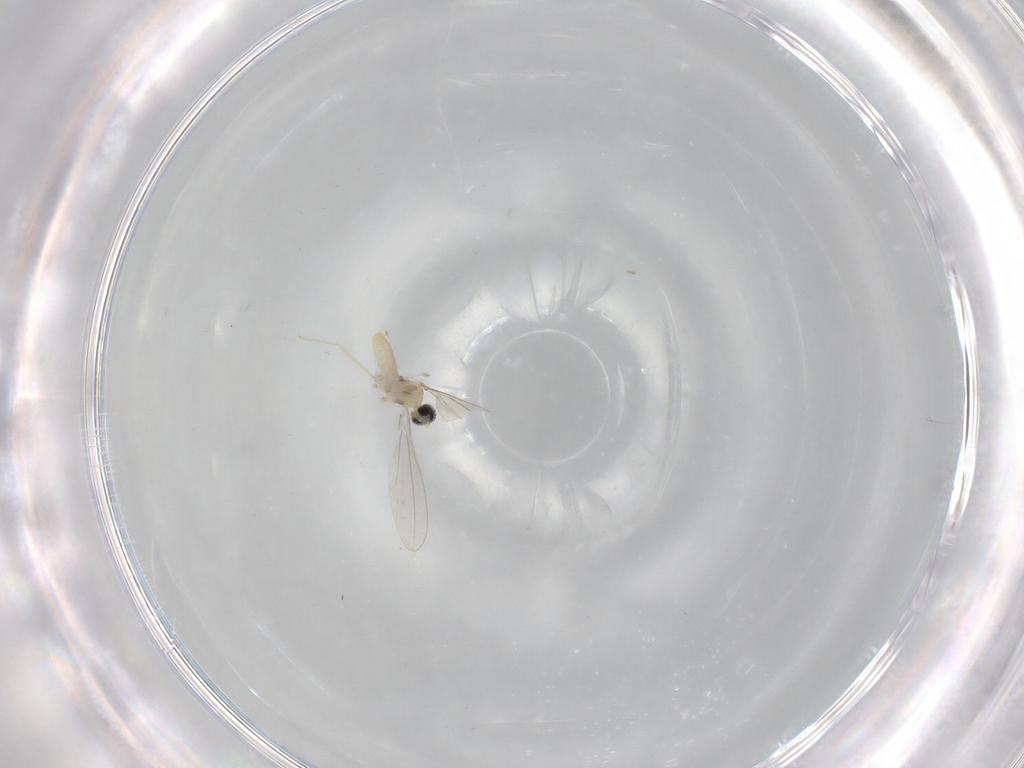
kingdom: Animalia
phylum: Arthropoda
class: Insecta
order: Diptera
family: Cecidomyiidae
